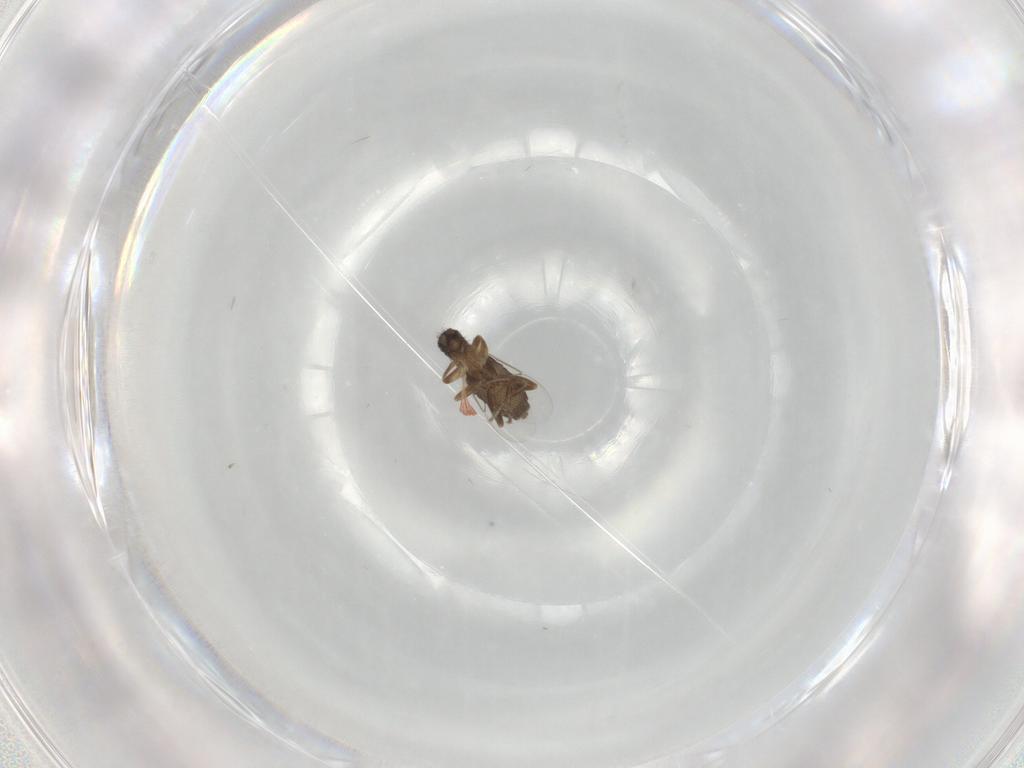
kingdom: Animalia
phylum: Arthropoda
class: Insecta
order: Diptera
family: Phoridae
